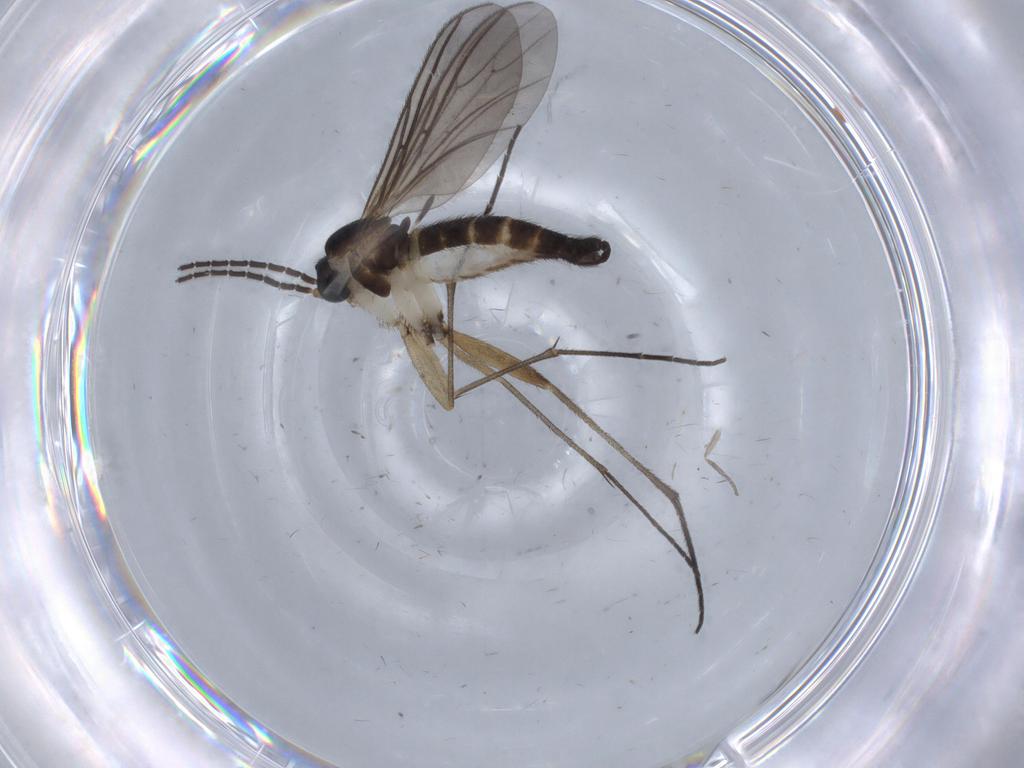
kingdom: Animalia
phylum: Arthropoda
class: Insecta
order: Diptera
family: Sciaridae
